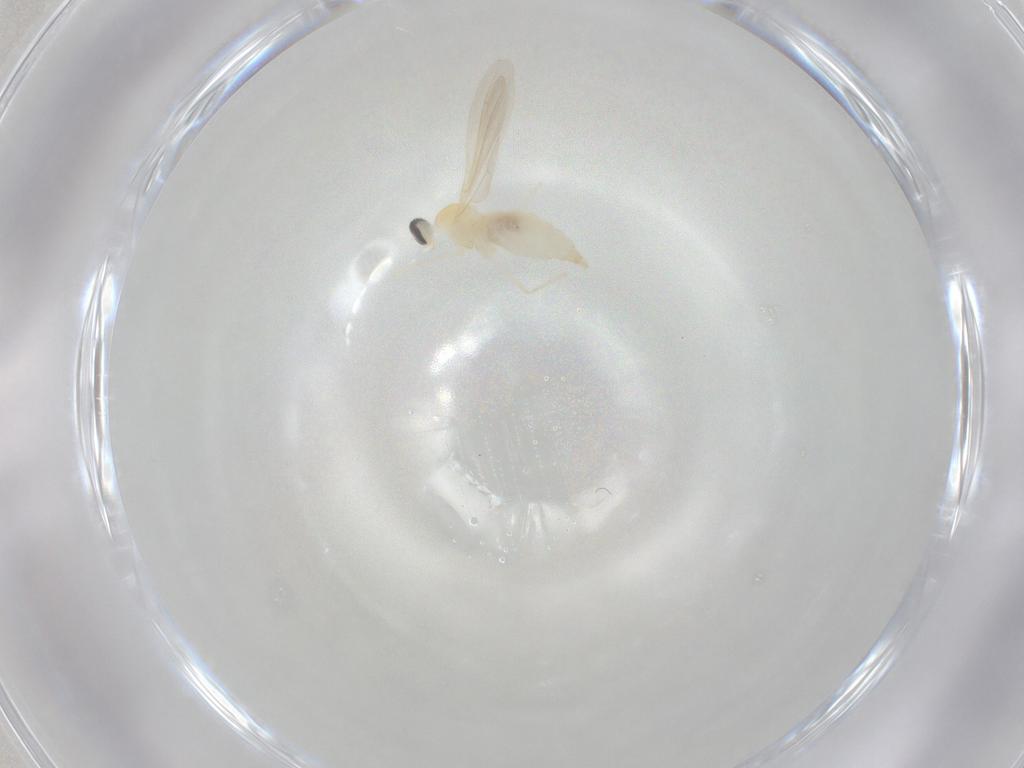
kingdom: Animalia
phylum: Arthropoda
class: Insecta
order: Diptera
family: Cecidomyiidae
